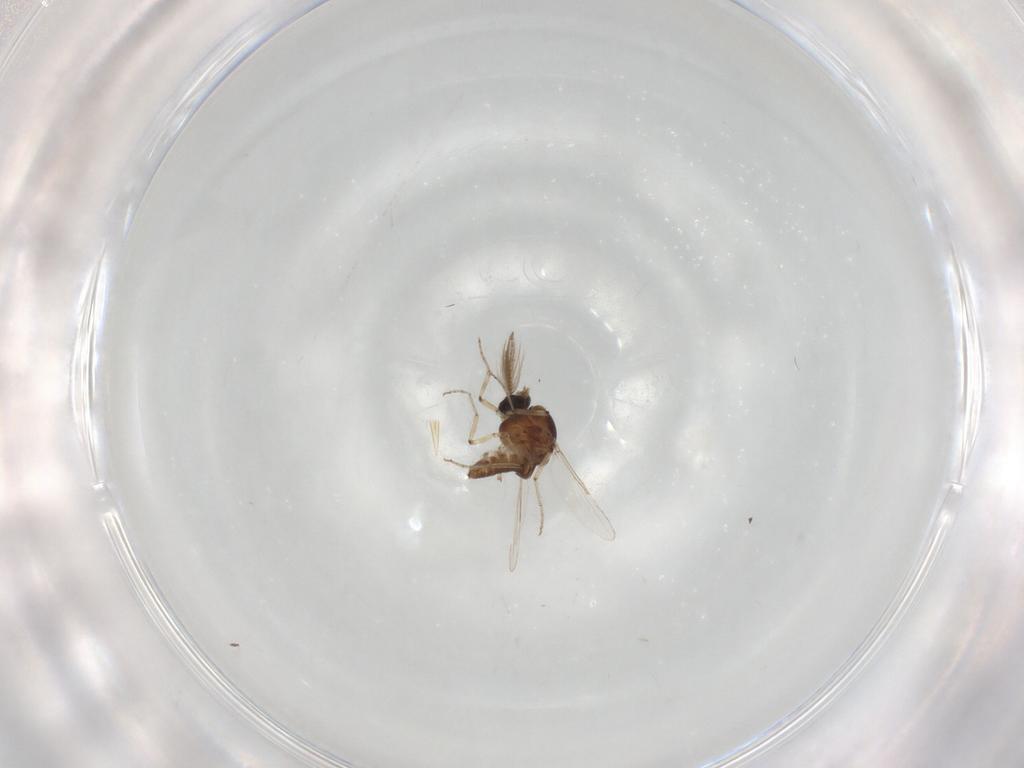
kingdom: Animalia
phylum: Arthropoda
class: Insecta
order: Diptera
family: Ceratopogonidae
